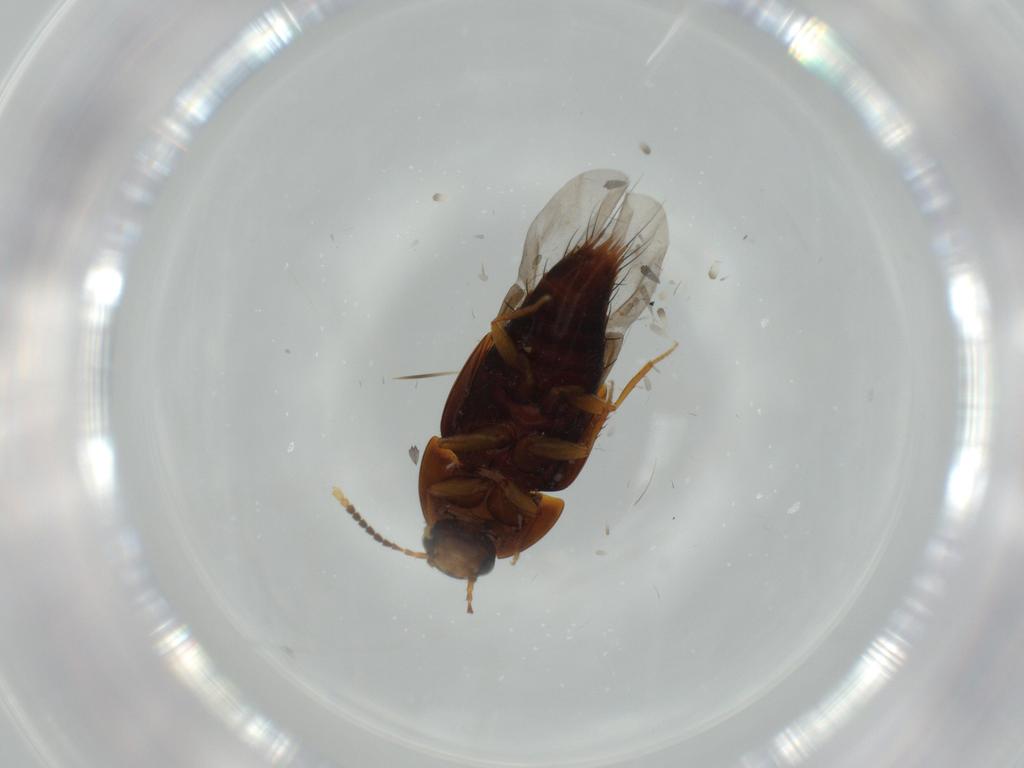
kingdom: Animalia
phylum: Arthropoda
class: Insecta
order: Coleoptera
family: Staphylinidae
